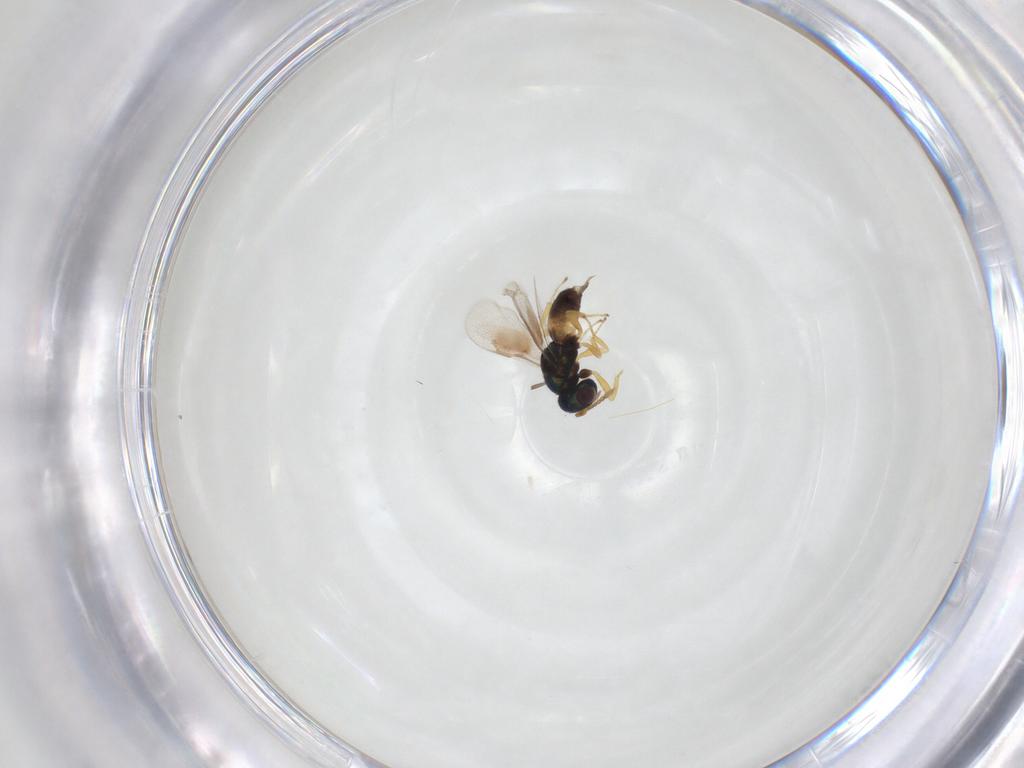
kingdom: Animalia
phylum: Arthropoda
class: Insecta
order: Hymenoptera
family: Pteromalidae
